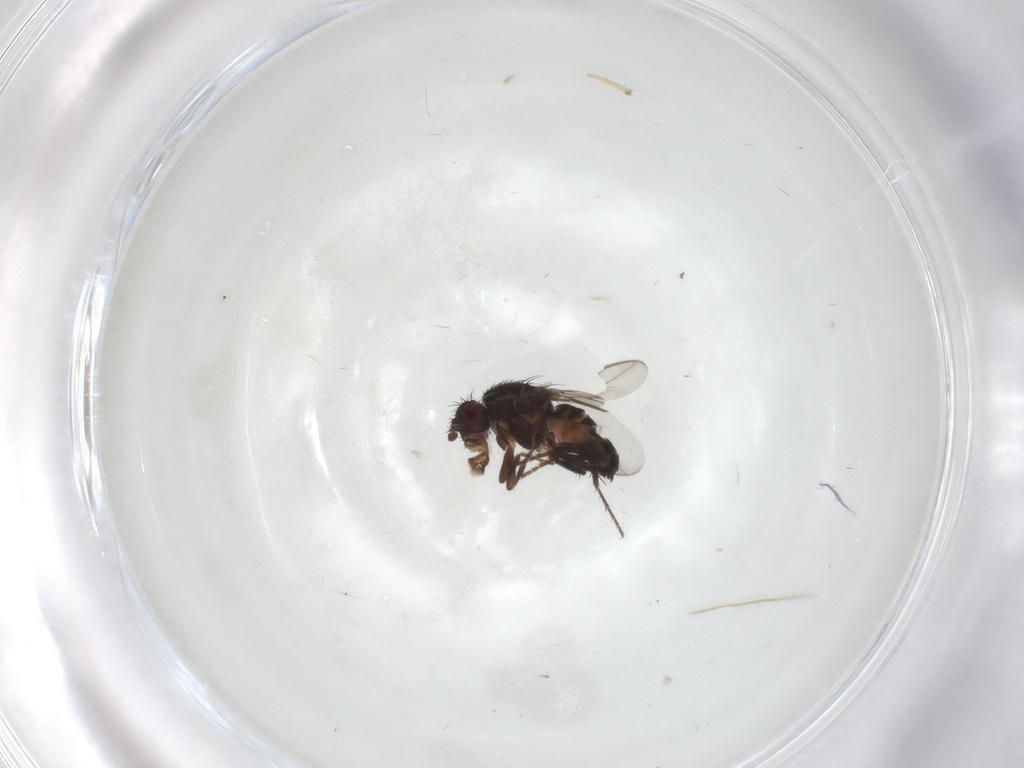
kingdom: Animalia
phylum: Arthropoda
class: Insecta
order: Diptera
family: Sphaeroceridae
